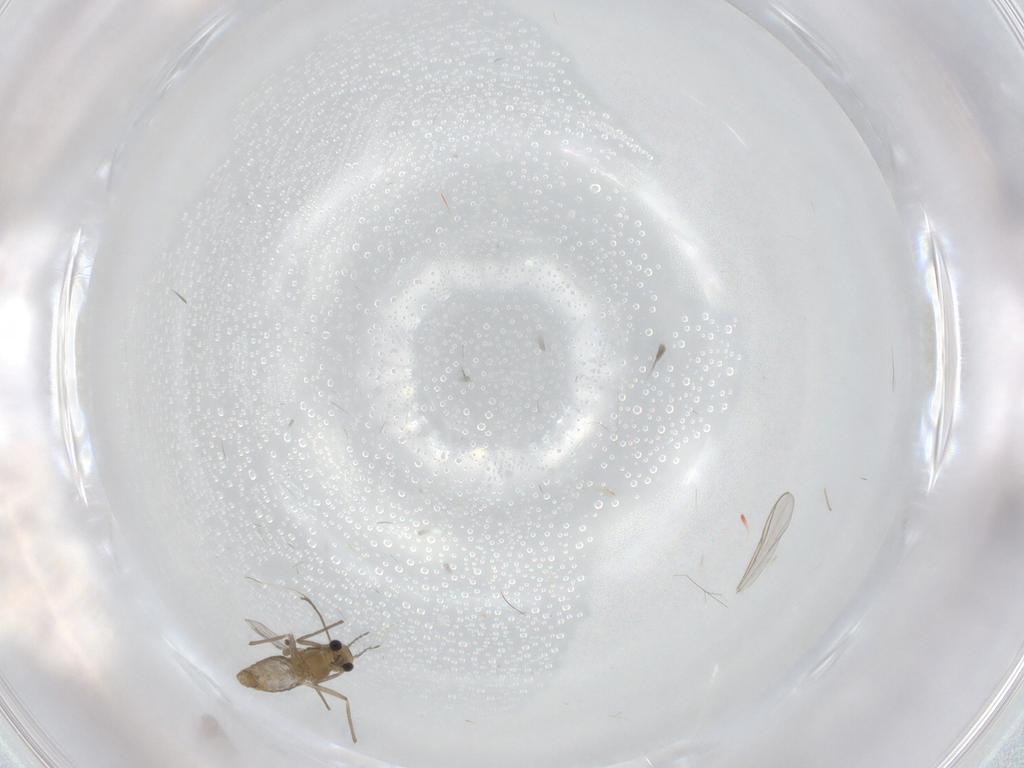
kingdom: Animalia
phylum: Arthropoda
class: Insecta
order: Diptera
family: Chironomidae
